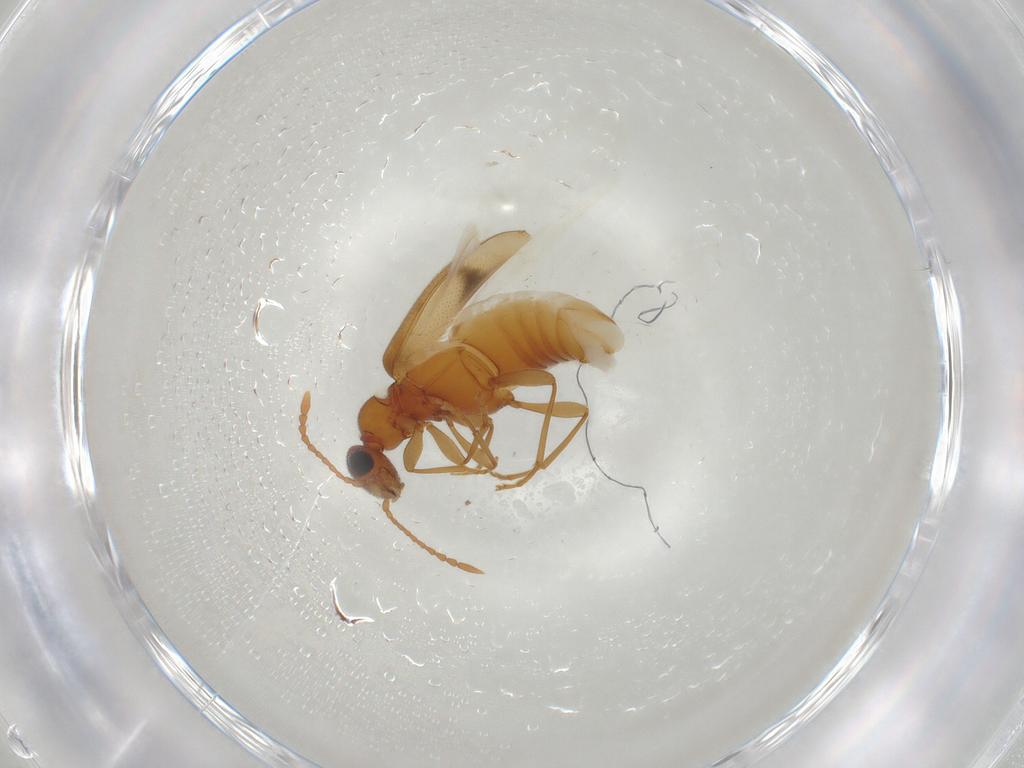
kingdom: Animalia
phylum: Arthropoda
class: Insecta
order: Coleoptera
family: Anthicidae
